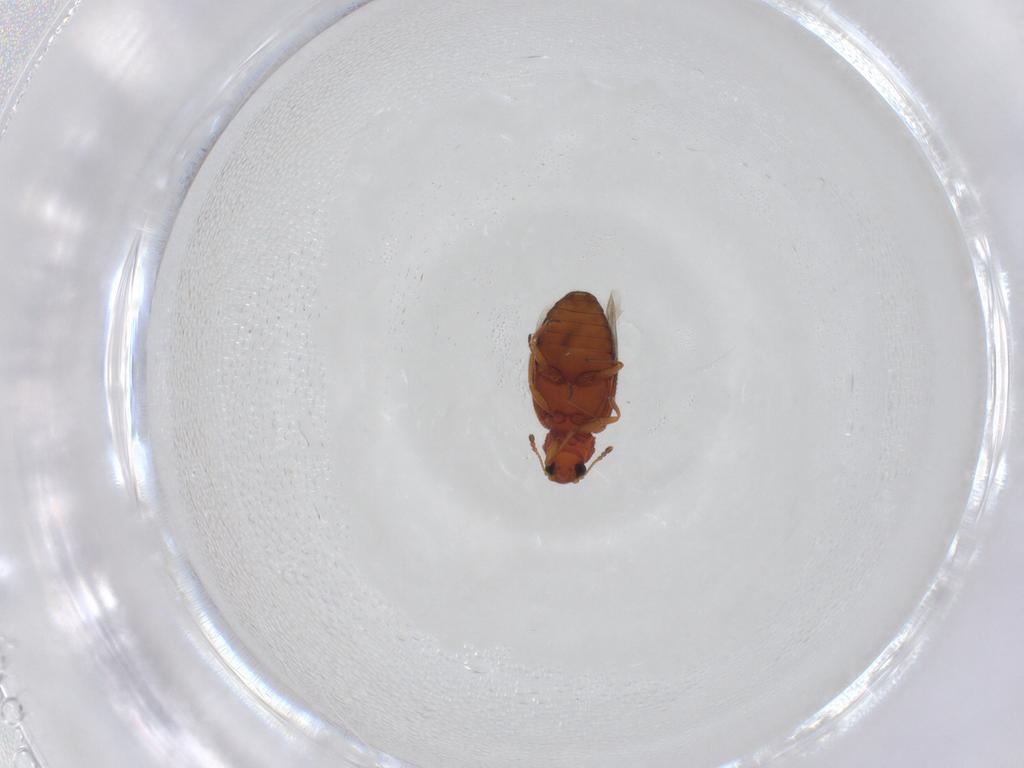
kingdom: Animalia
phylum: Arthropoda
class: Insecta
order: Coleoptera
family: Latridiidae
